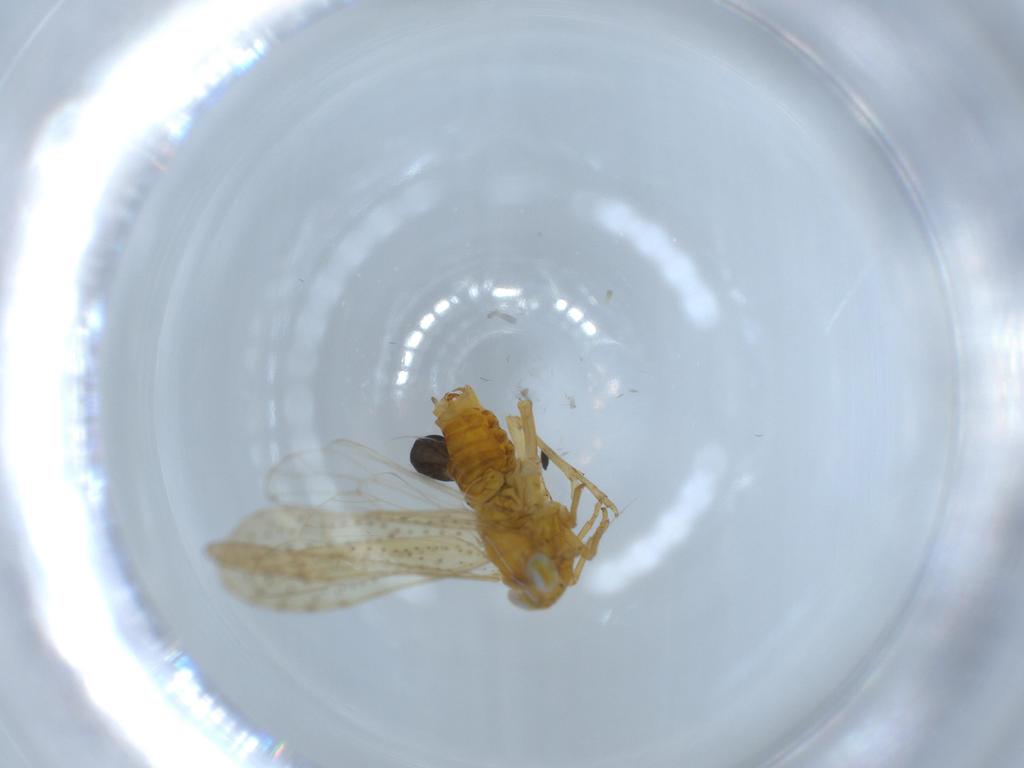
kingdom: Animalia
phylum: Arthropoda
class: Insecta
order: Hemiptera
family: Delphacidae
